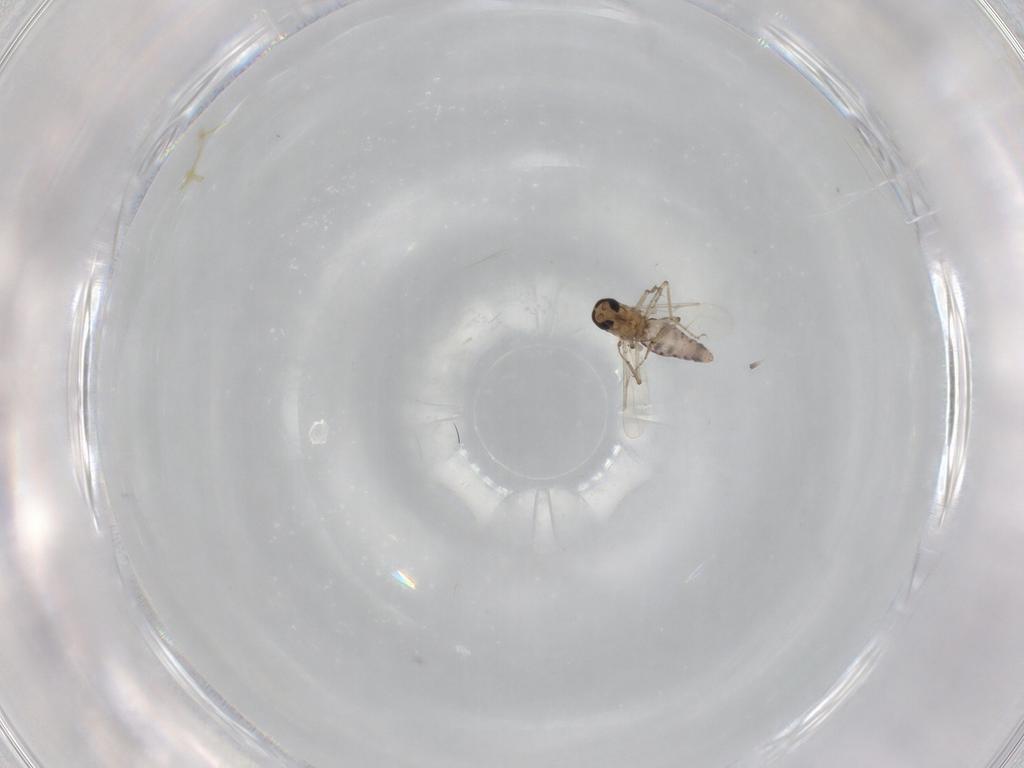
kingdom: Animalia
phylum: Arthropoda
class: Insecta
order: Diptera
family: Ceratopogonidae
